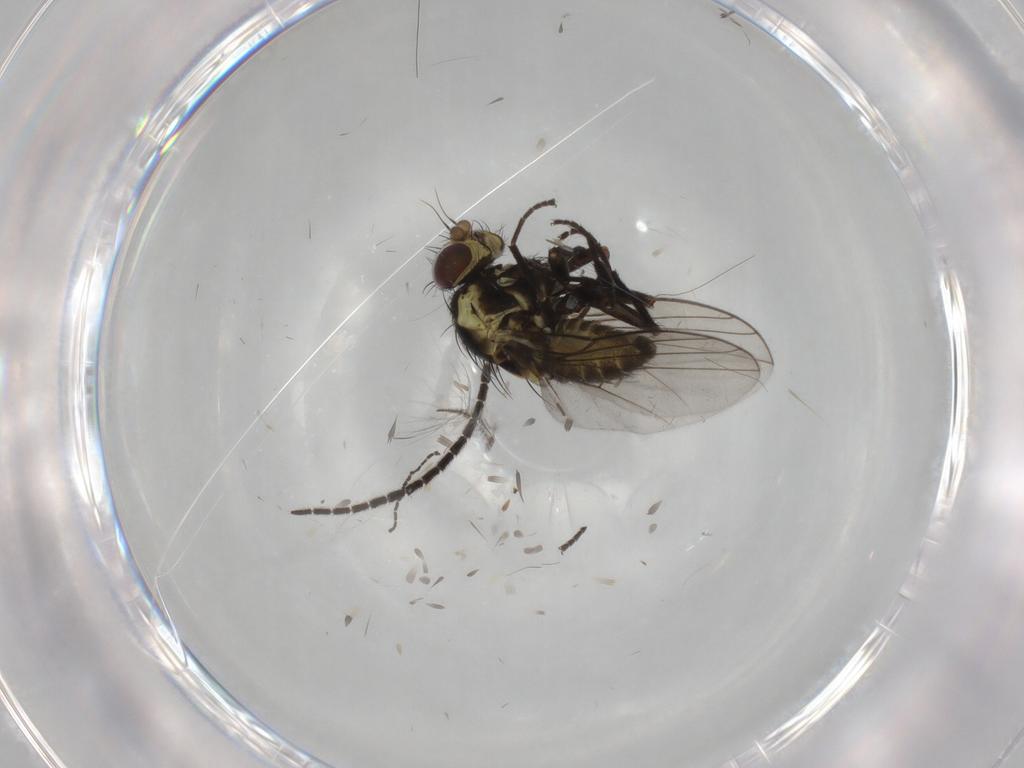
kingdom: Animalia
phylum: Arthropoda
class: Insecta
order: Diptera
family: Agromyzidae
